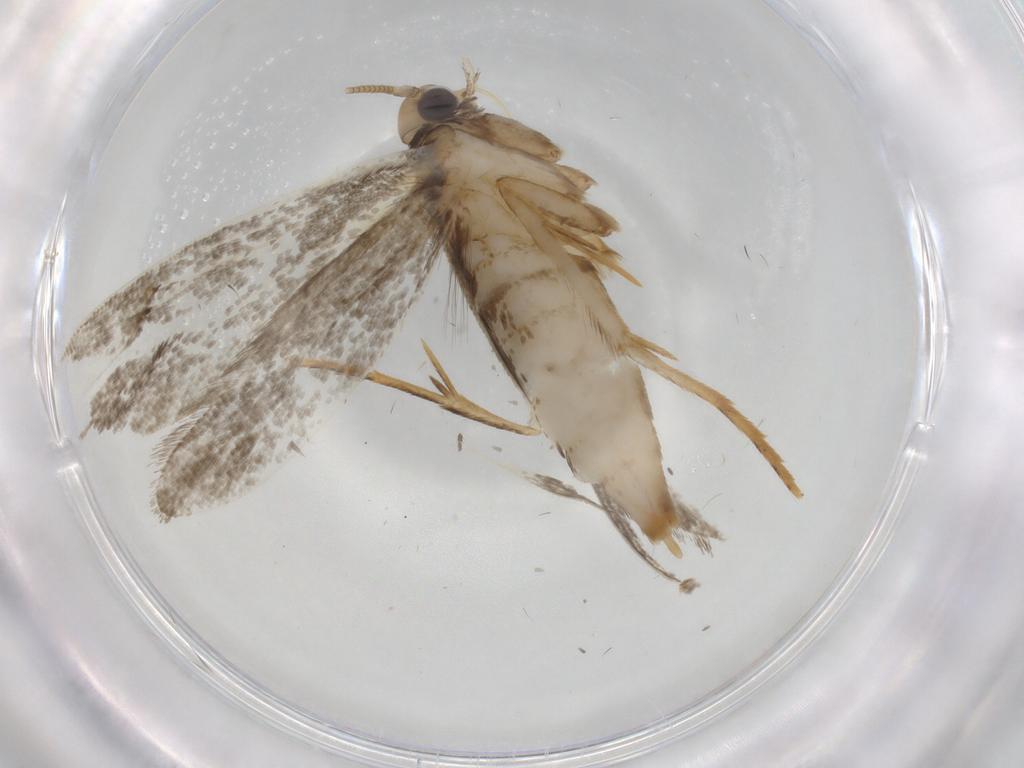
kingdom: Animalia
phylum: Arthropoda
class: Insecta
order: Lepidoptera
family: Tineidae
